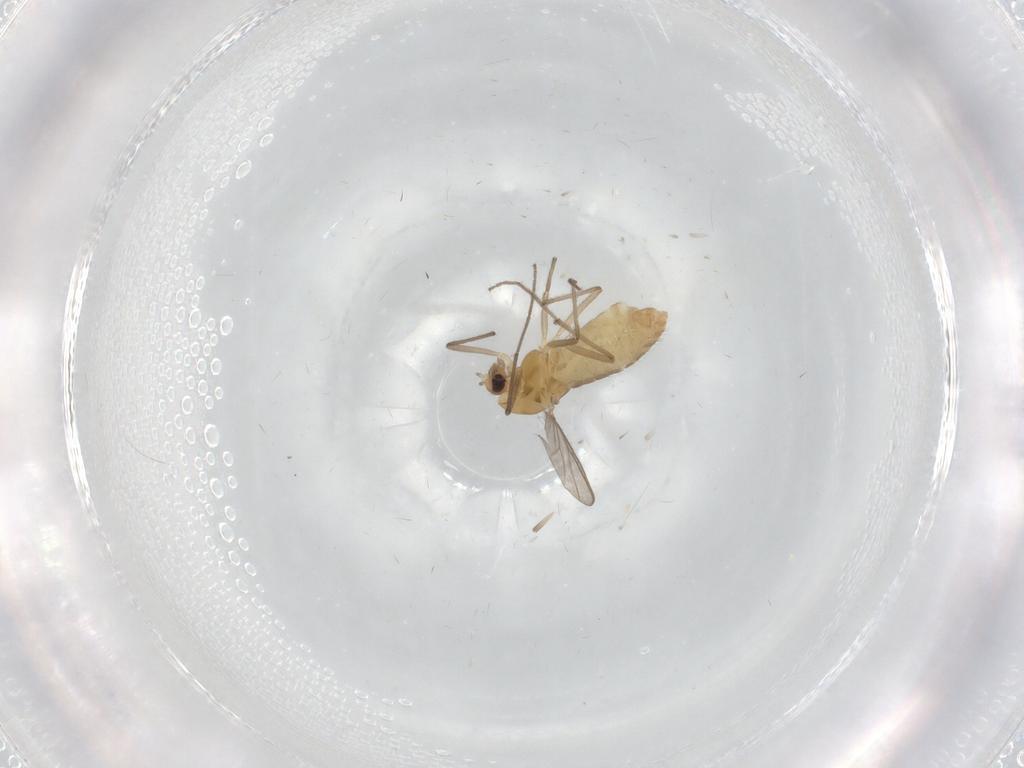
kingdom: Animalia
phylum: Arthropoda
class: Insecta
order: Diptera
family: Chironomidae
